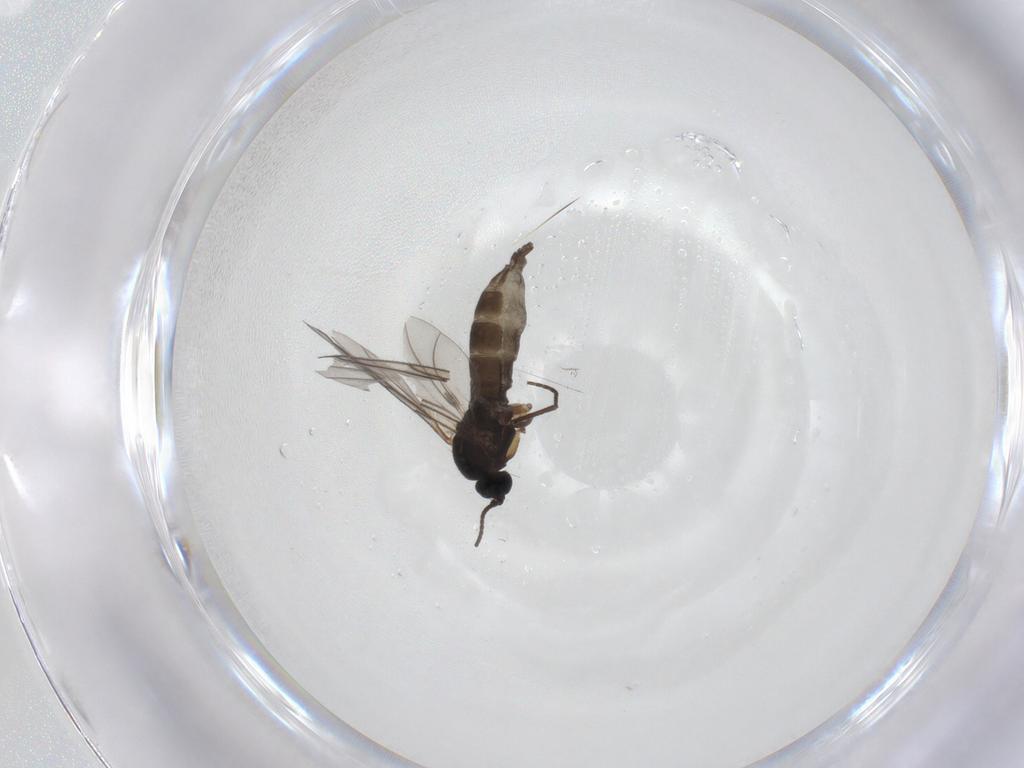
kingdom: Animalia
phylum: Arthropoda
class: Insecta
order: Diptera
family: Sciaridae
